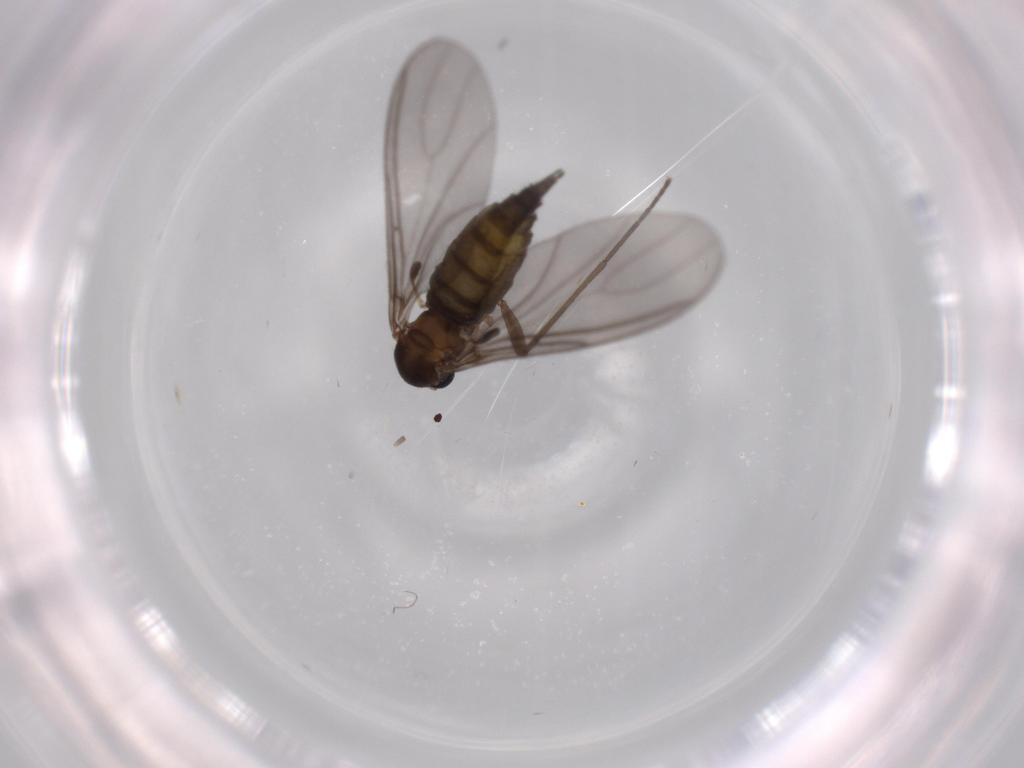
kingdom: Animalia
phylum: Arthropoda
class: Insecta
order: Diptera
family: Sciaridae
